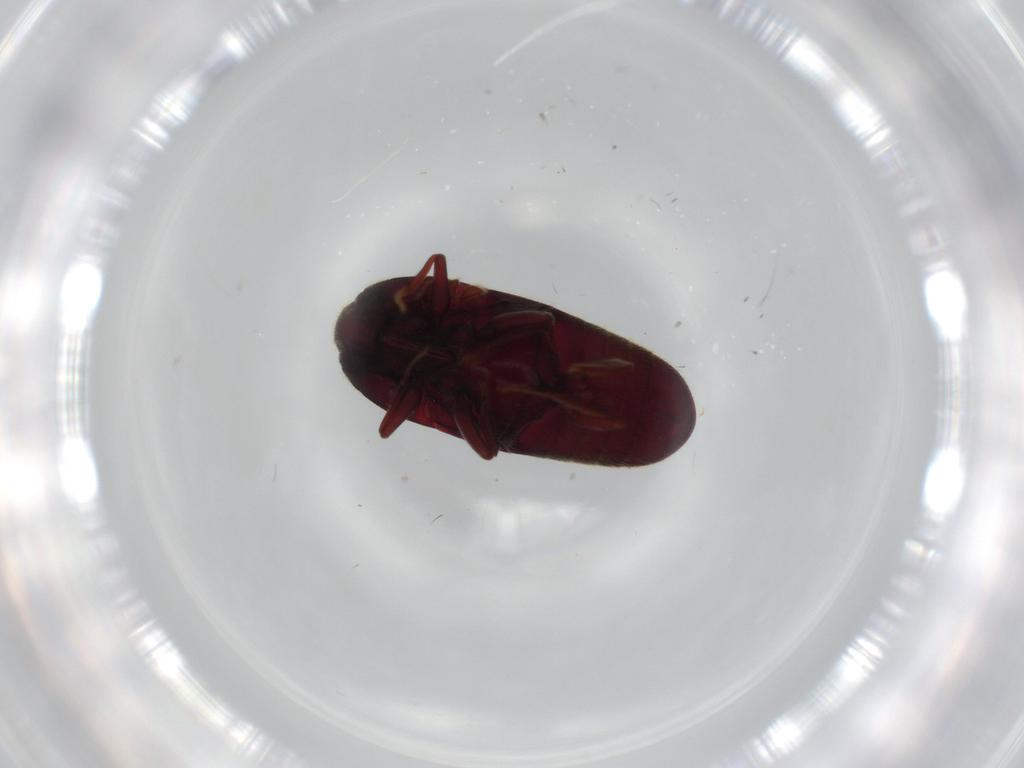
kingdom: Animalia
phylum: Arthropoda
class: Insecta
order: Coleoptera
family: Throscidae
